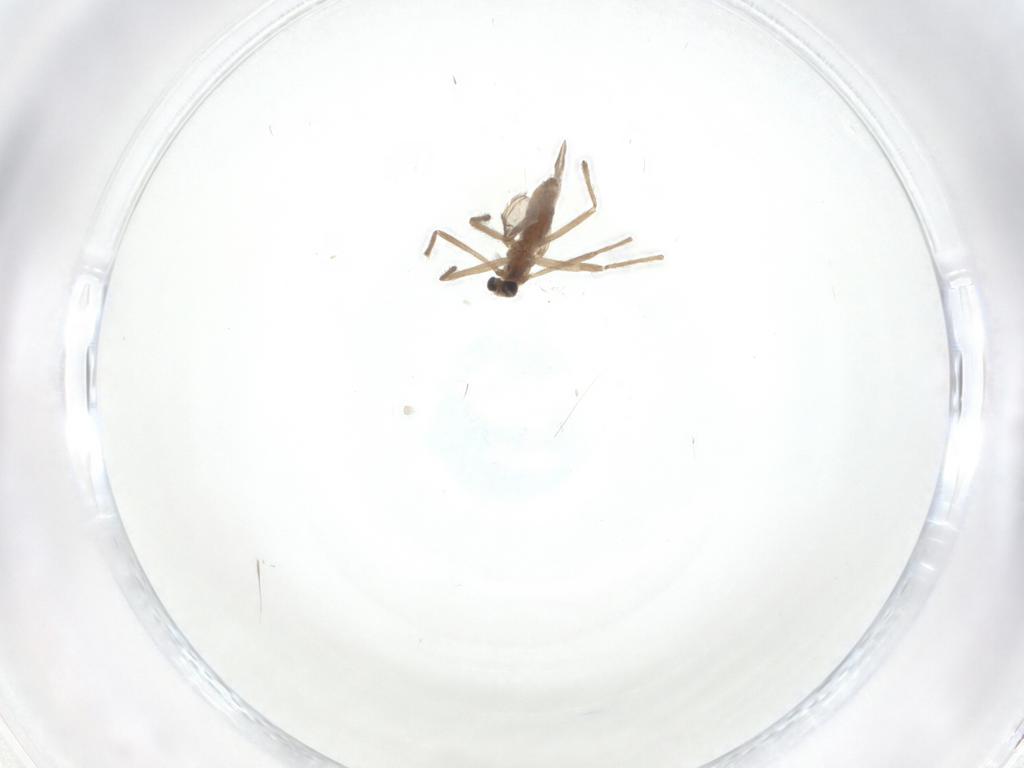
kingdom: Animalia
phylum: Arthropoda
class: Insecta
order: Diptera
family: Chironomidae
